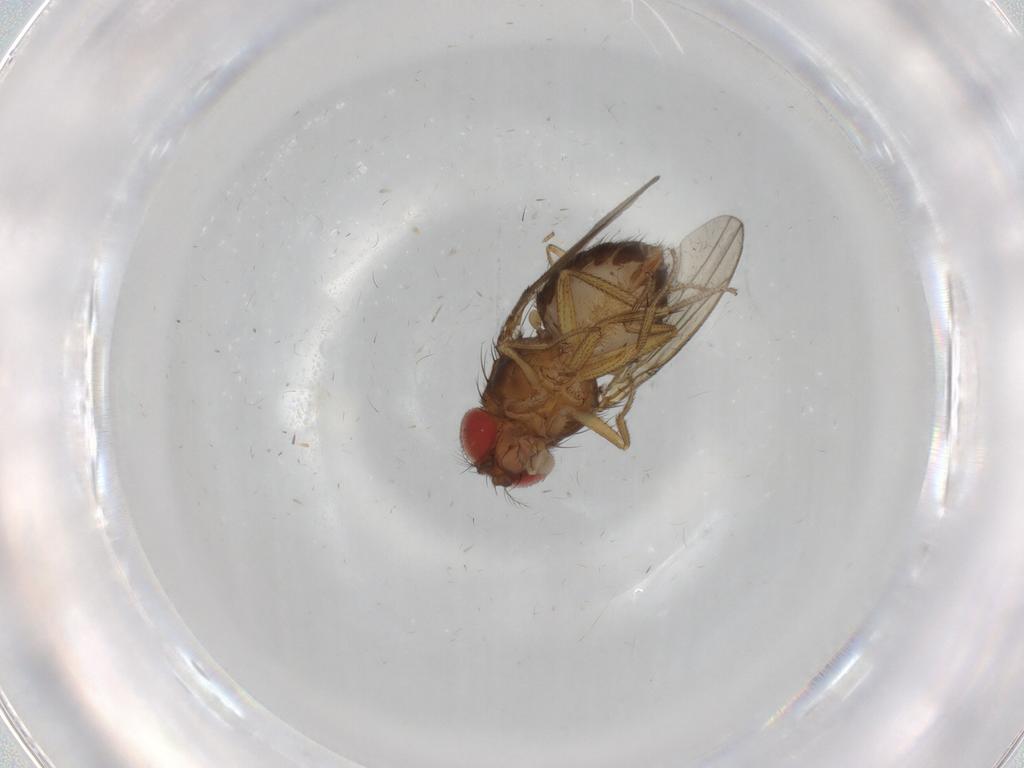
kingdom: Animalia
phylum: Arthropoda
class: Insecta
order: Diptera
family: Drosophilidae
